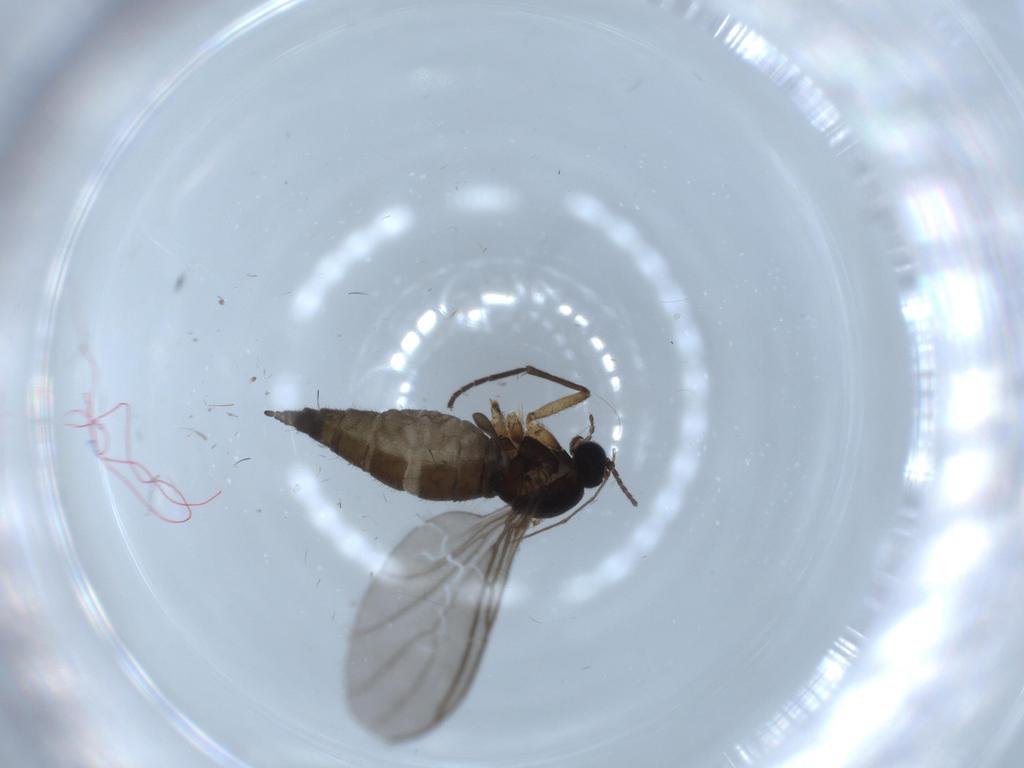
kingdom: Animalia
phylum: Arthropoda
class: Insecta
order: Diptera
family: Sciaridae
